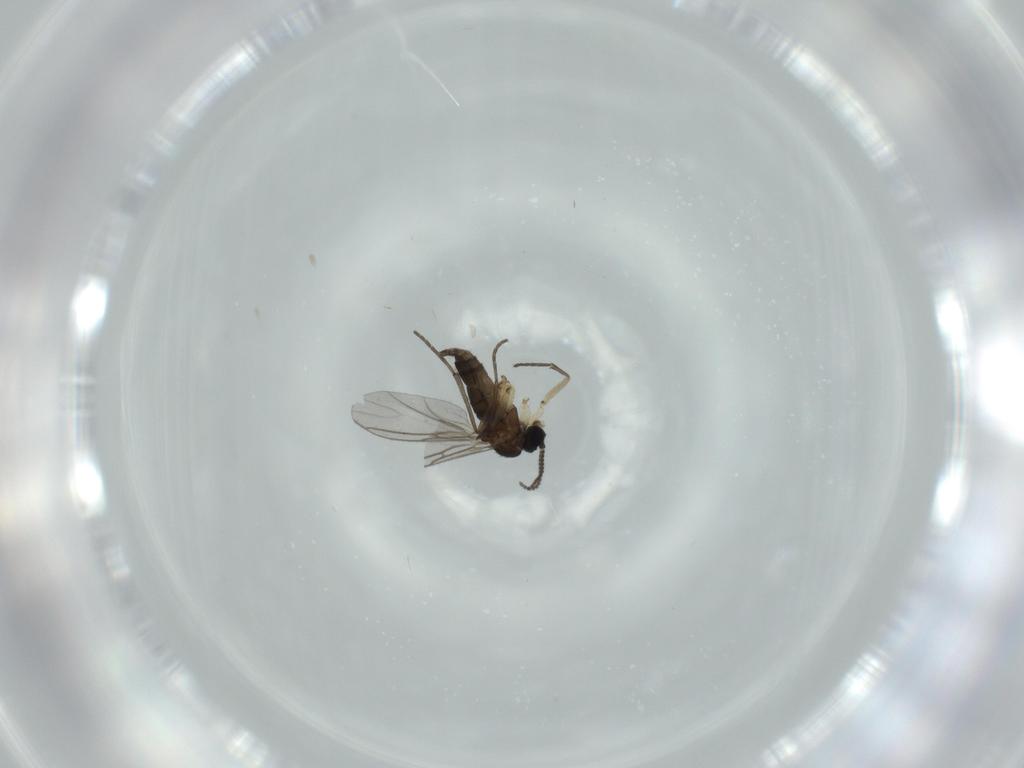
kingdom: Animalia
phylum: Arthropoda
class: Insecta
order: Diptera
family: Sciaridae
